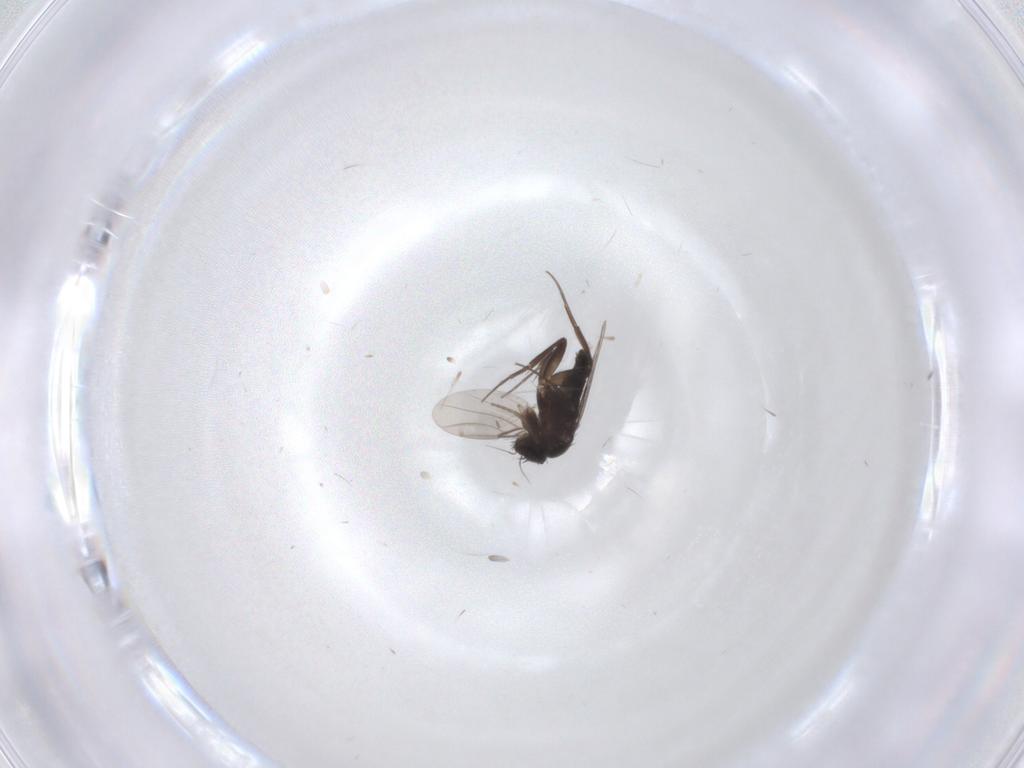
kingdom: Animalia
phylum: Arthropoda
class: Insecta
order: Diptera
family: Phoridae
